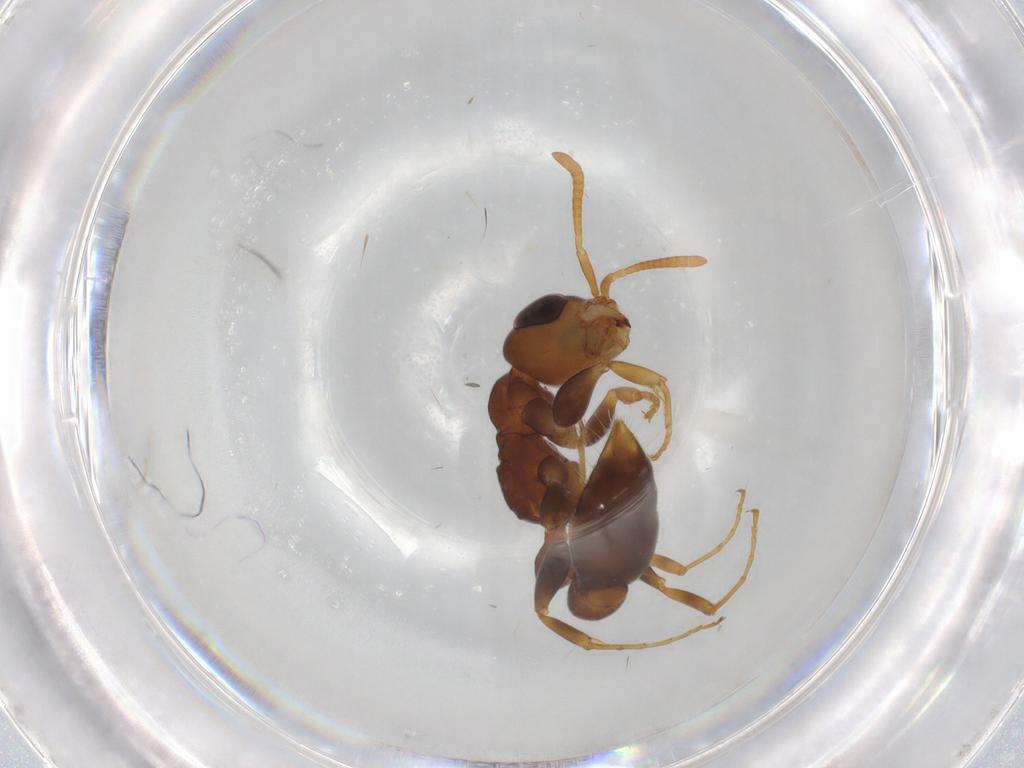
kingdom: Animalia
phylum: Arthropoda
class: Insecta
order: Hymenoptera
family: Formicidae
